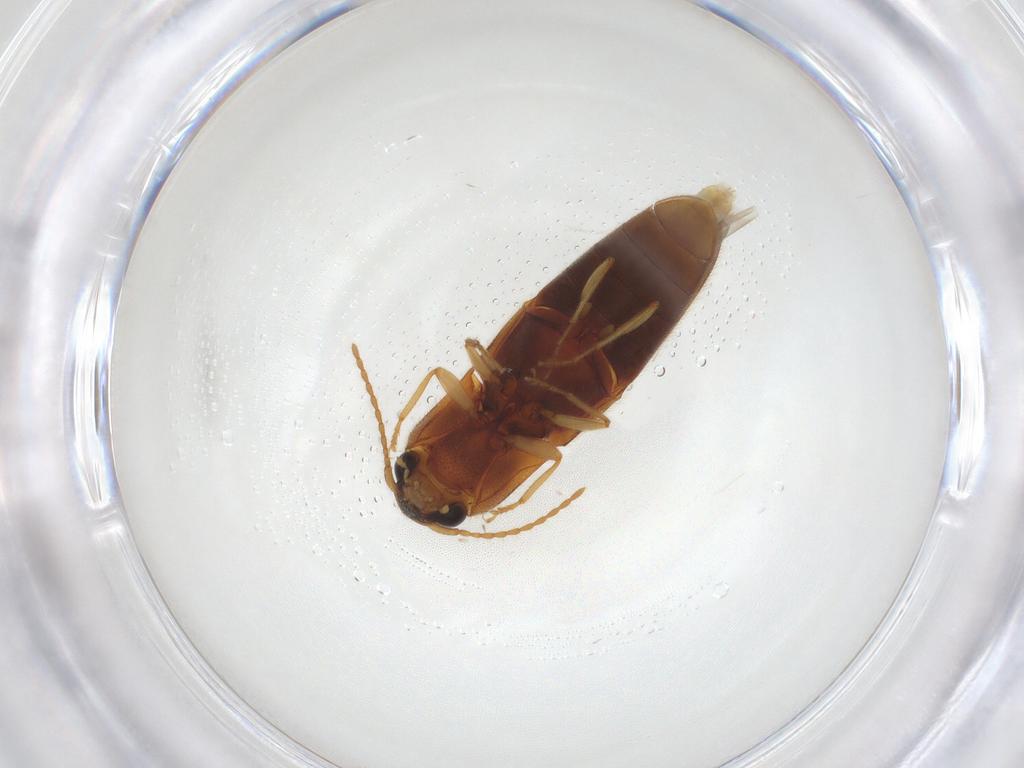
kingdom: Animalia
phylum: Arthropoda
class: Insecta
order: Coleoptera
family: Elateridae
